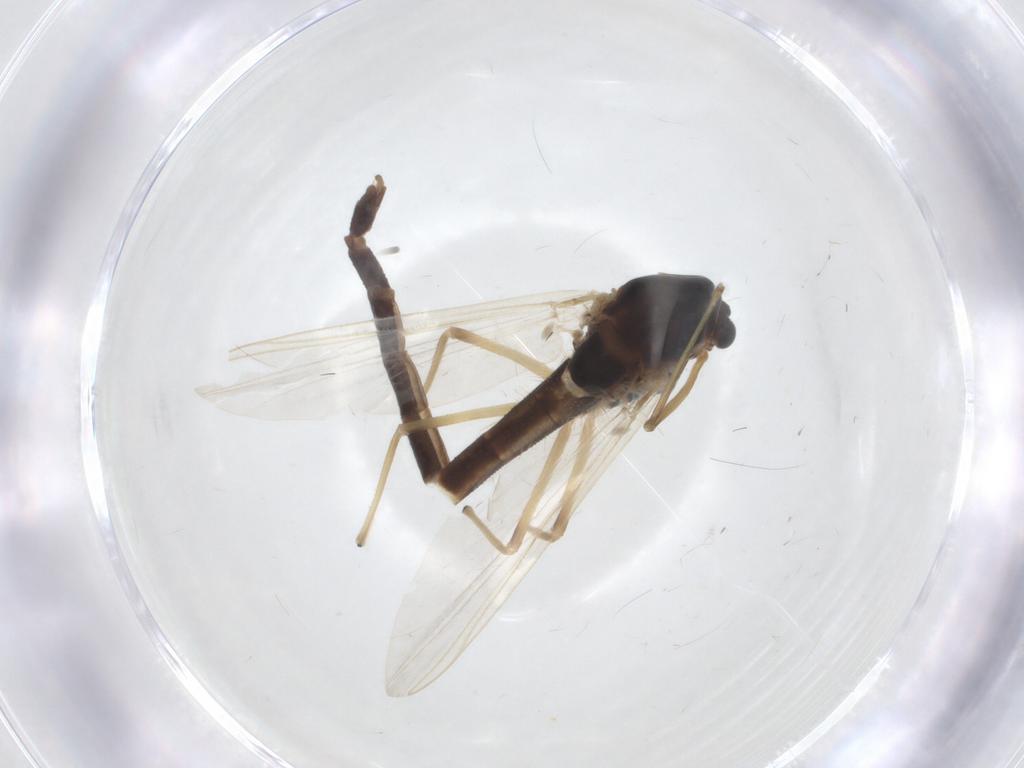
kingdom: Animalia
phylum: Arthropoda
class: Insecta
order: Diptera
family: Chironomidae
